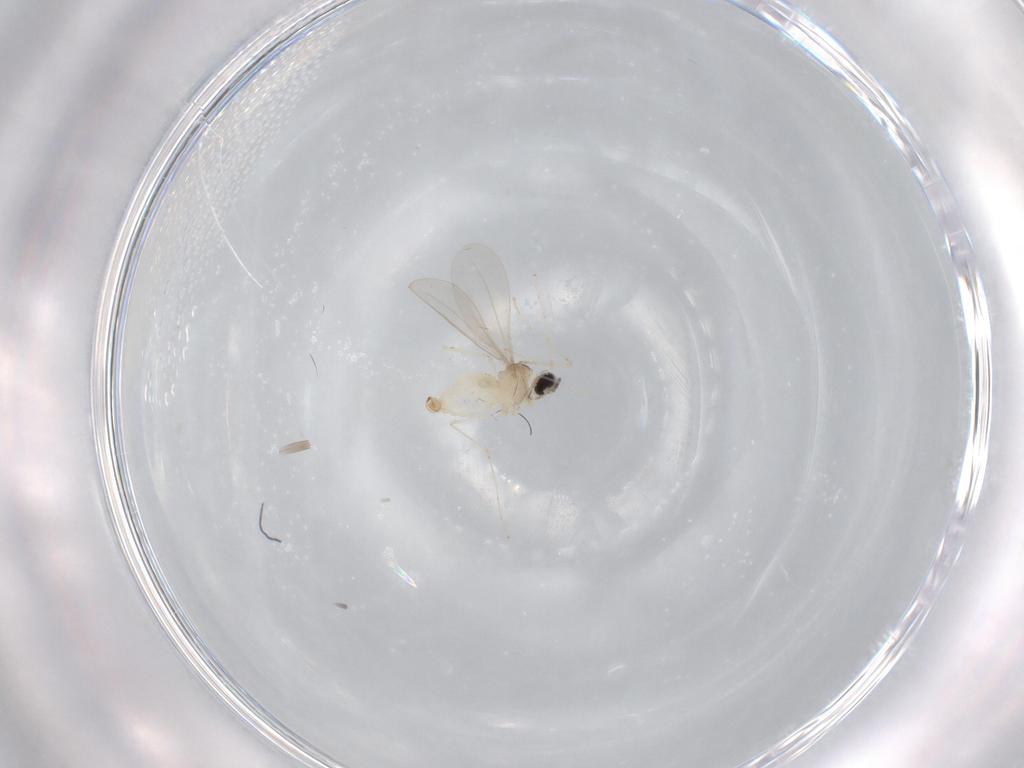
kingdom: Animalia
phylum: Arthropoda
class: Insecta
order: Diptera
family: Cecidomyiidae
